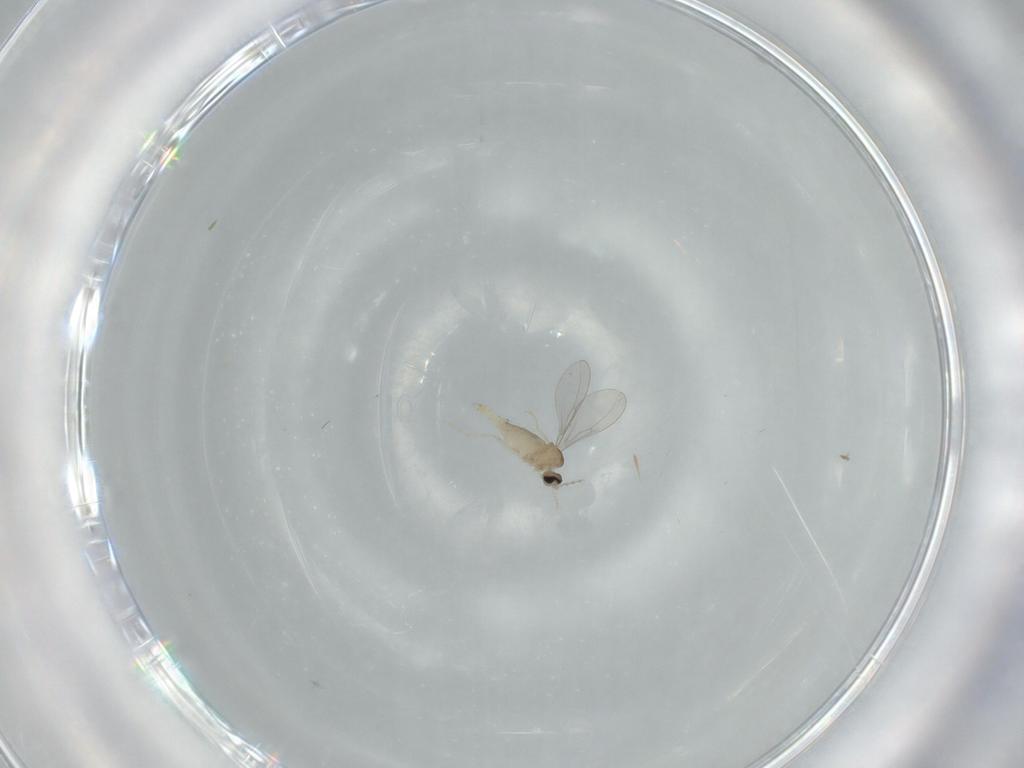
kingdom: Animalia
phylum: Arthropoda
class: Insecta
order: Diptera
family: Cecidomyiidae
